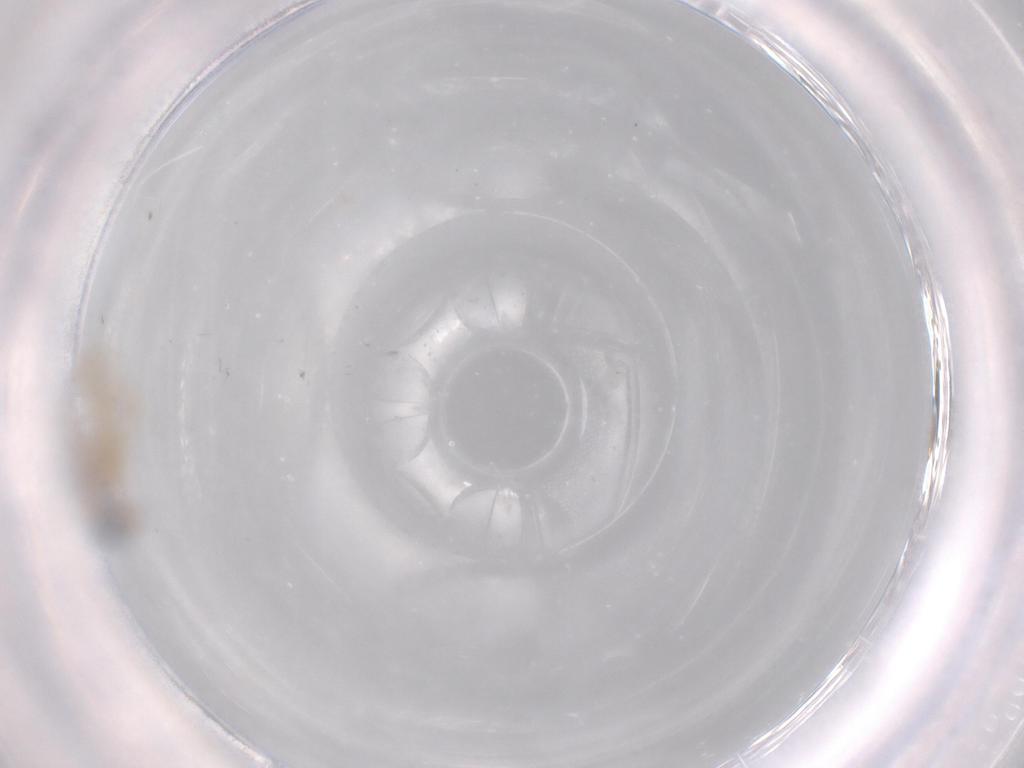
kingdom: Animalia
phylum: Arthropoda
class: Insecta
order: Diptera
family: Cecidomyiidae
